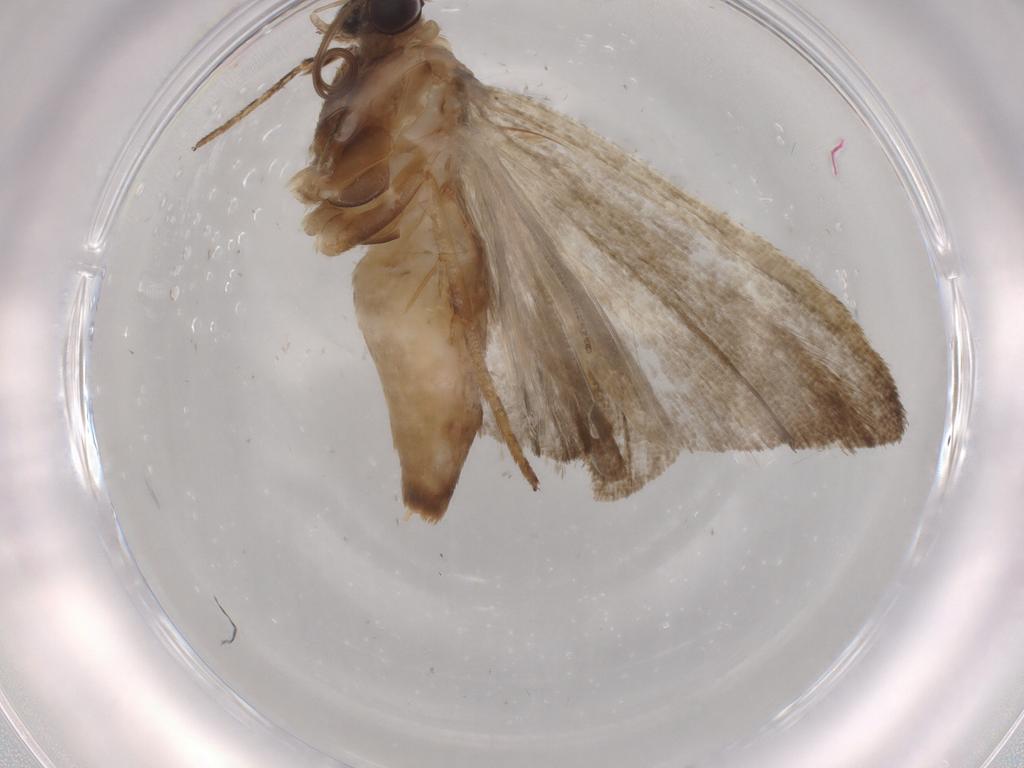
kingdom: Animalia
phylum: Arthropoda
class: Insecta
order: Lepidoptera
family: Noctuidae
